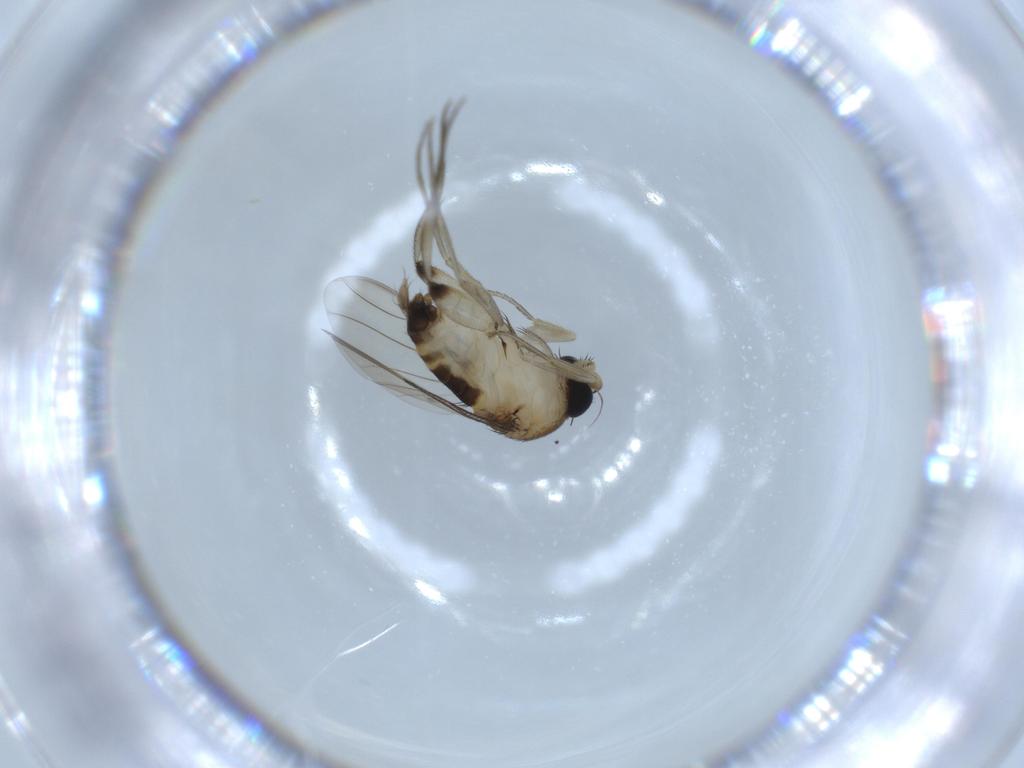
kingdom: Animalia
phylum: Arthropoda
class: Insecta
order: Diptera
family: Phoridae
